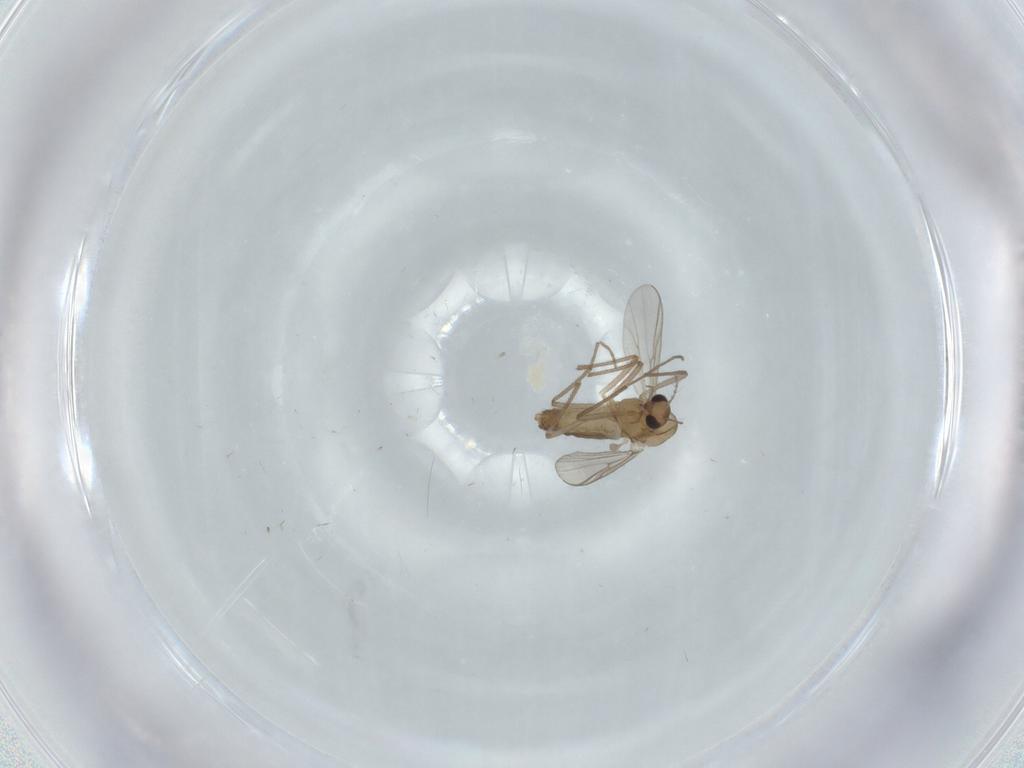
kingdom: Animalia
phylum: Arthropoda
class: Insecta
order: Diptera
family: Chironomidae
